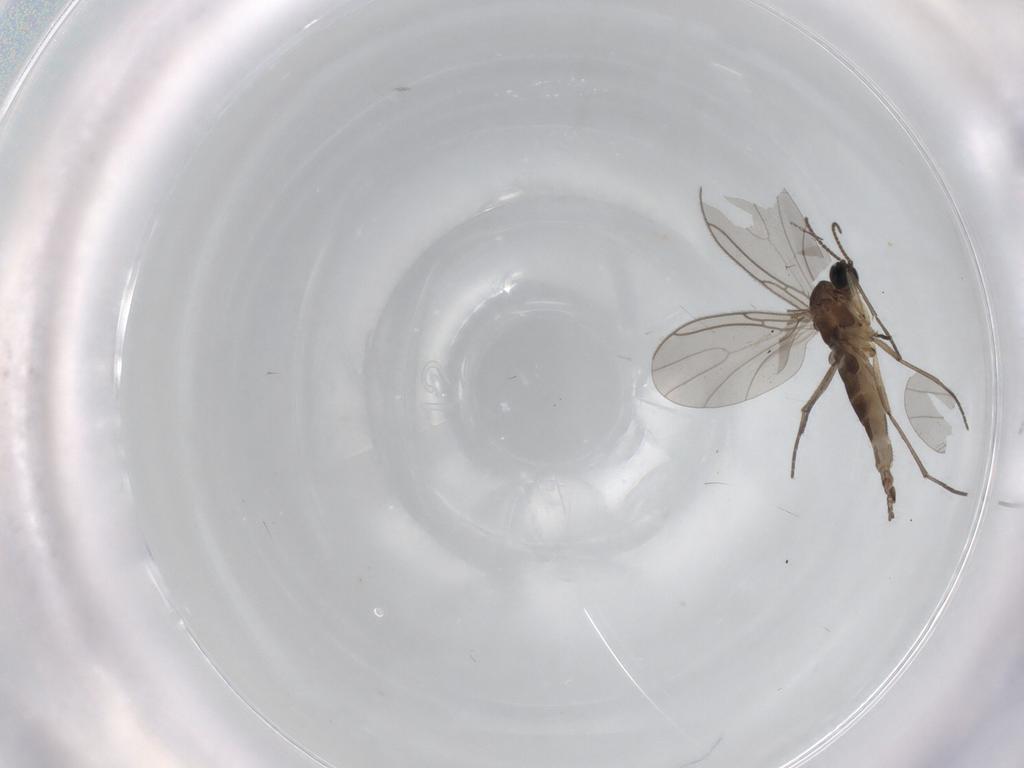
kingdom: Animalia
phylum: Arthropoda
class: Insecta
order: Diptera
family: Sciaridae
